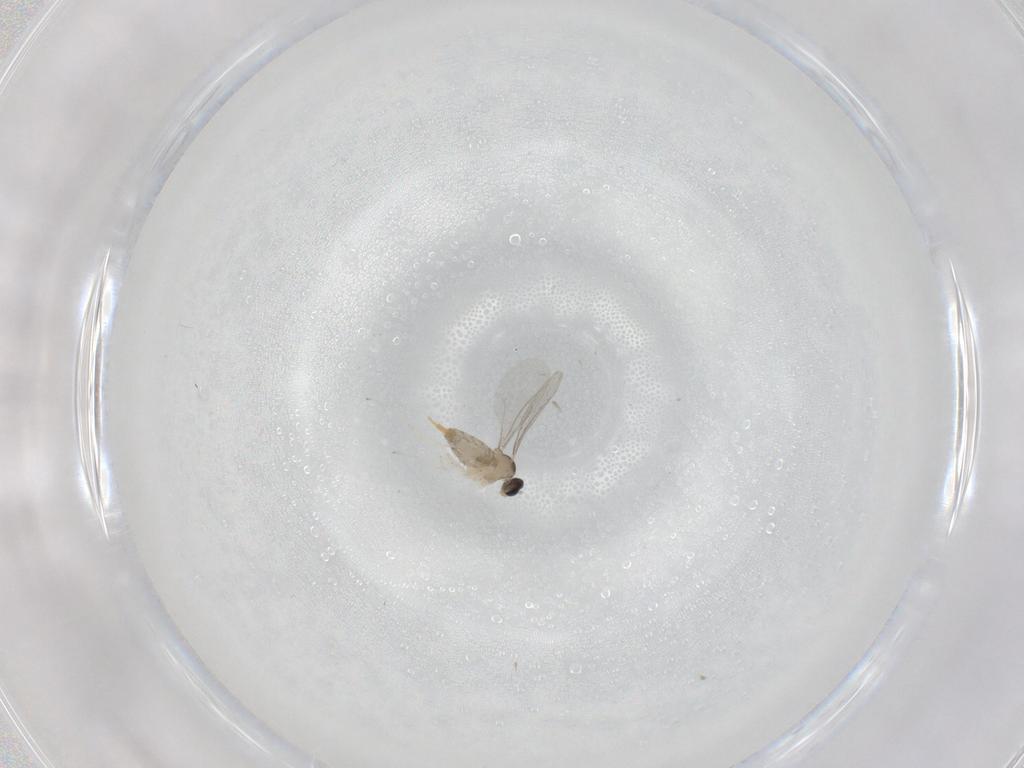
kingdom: Animalia
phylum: Arthropoda
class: Insecta
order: Diptera
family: Cecidomyiidae
